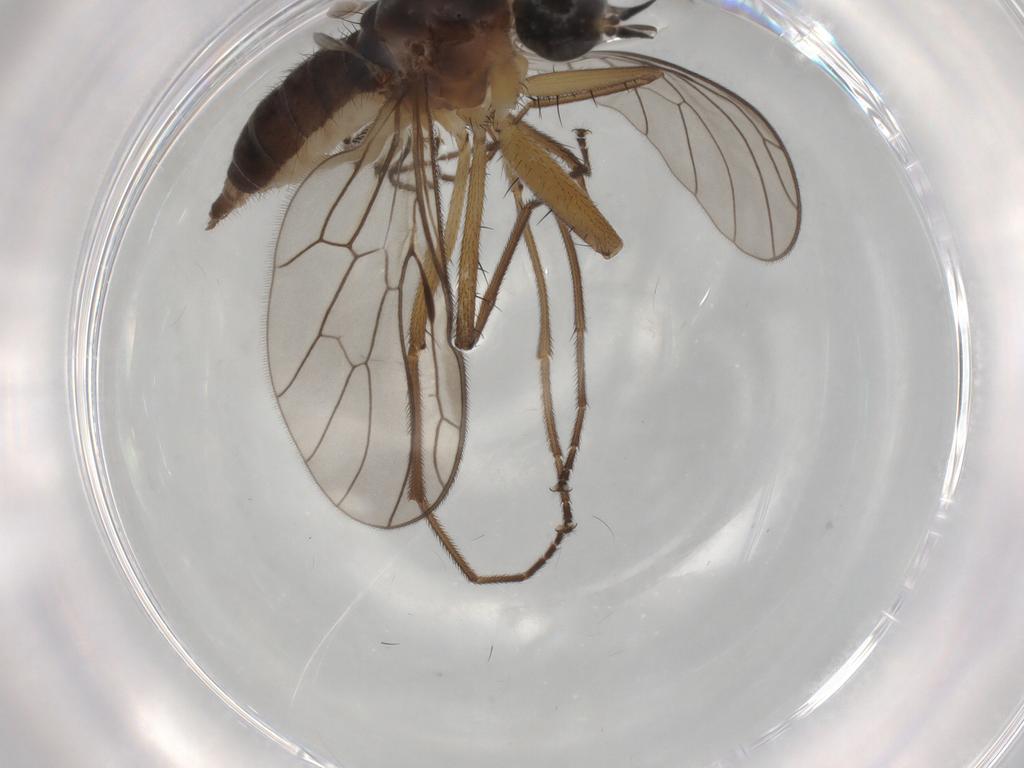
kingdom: Animalia
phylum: Arthropoda
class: Insecta
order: Diptera
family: Empididae
